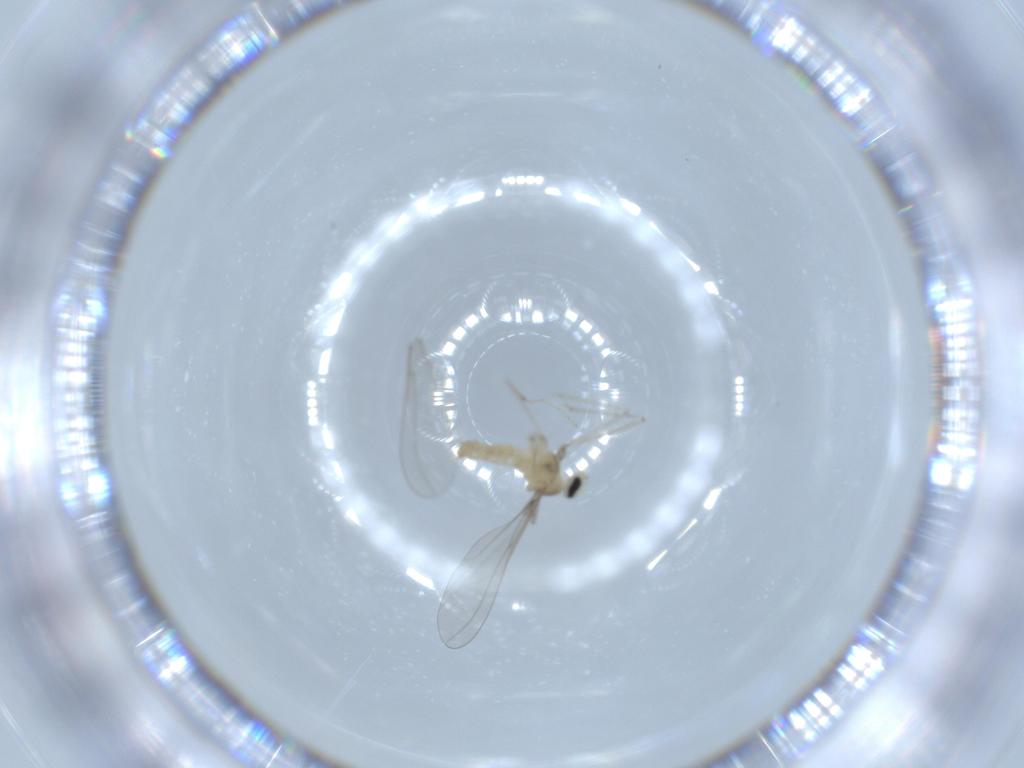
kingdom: Animalia
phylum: Arthropoda
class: Insecta
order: Diptera
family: Cecidomyiidae
